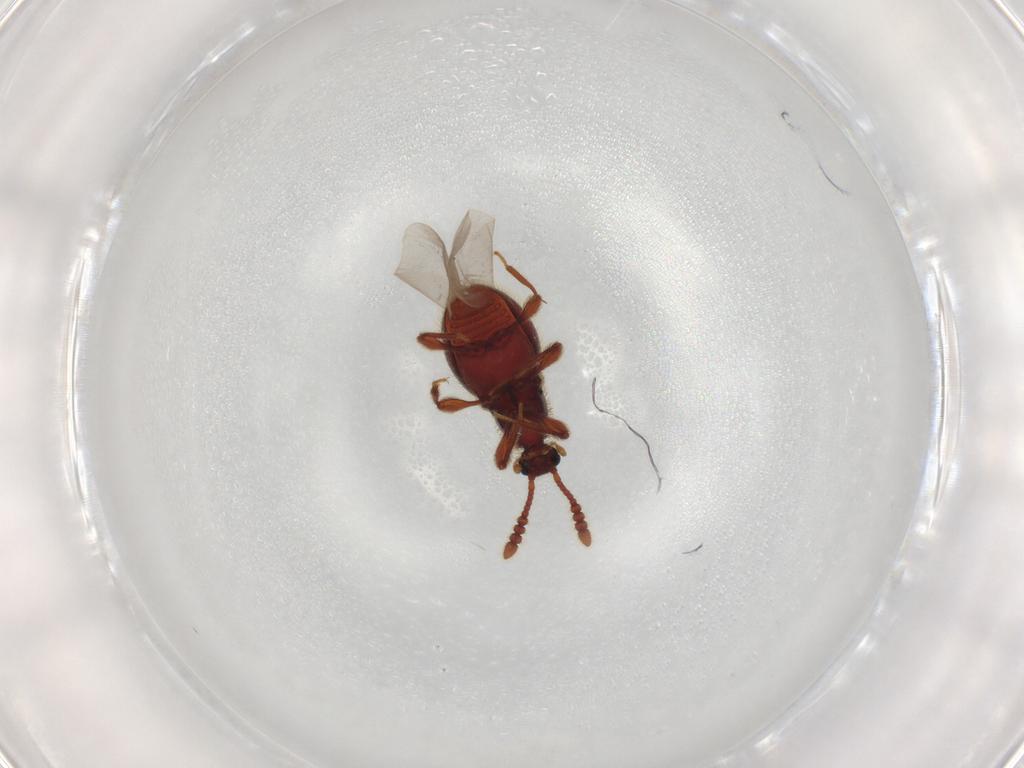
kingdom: Animalia
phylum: Arthropoda
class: Insecta
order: Coleoptera
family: Staphylinidae
